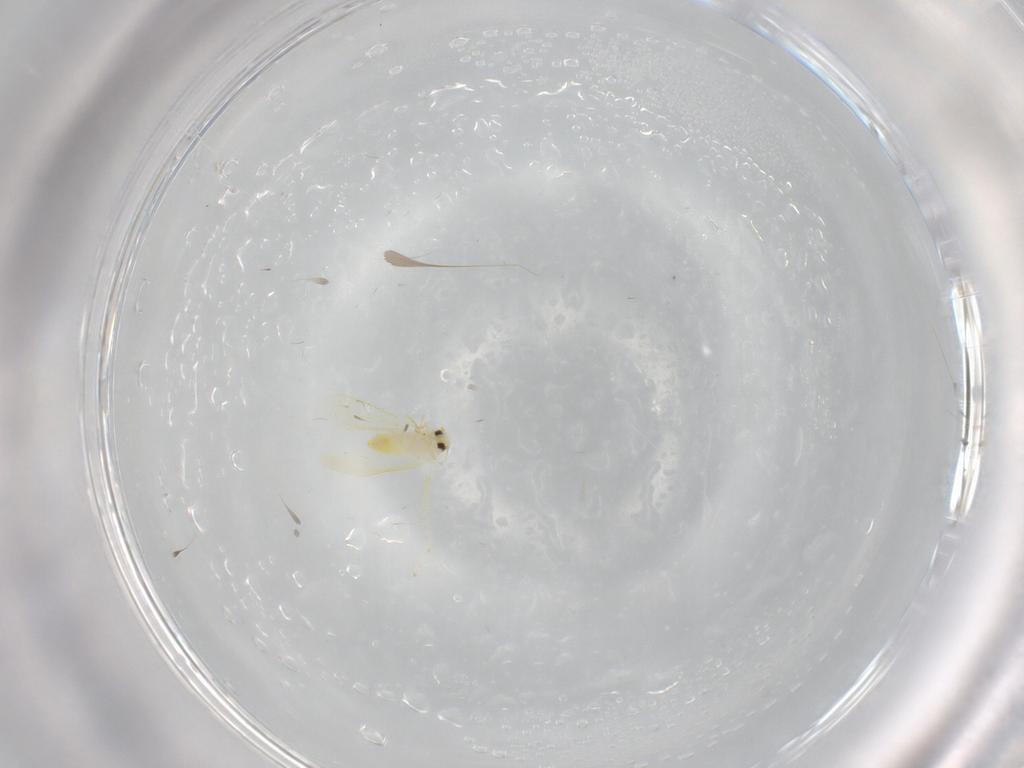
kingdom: Animalia
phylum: Arthropoda
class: Insecta
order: Hemiptera
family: Cicadellidae
